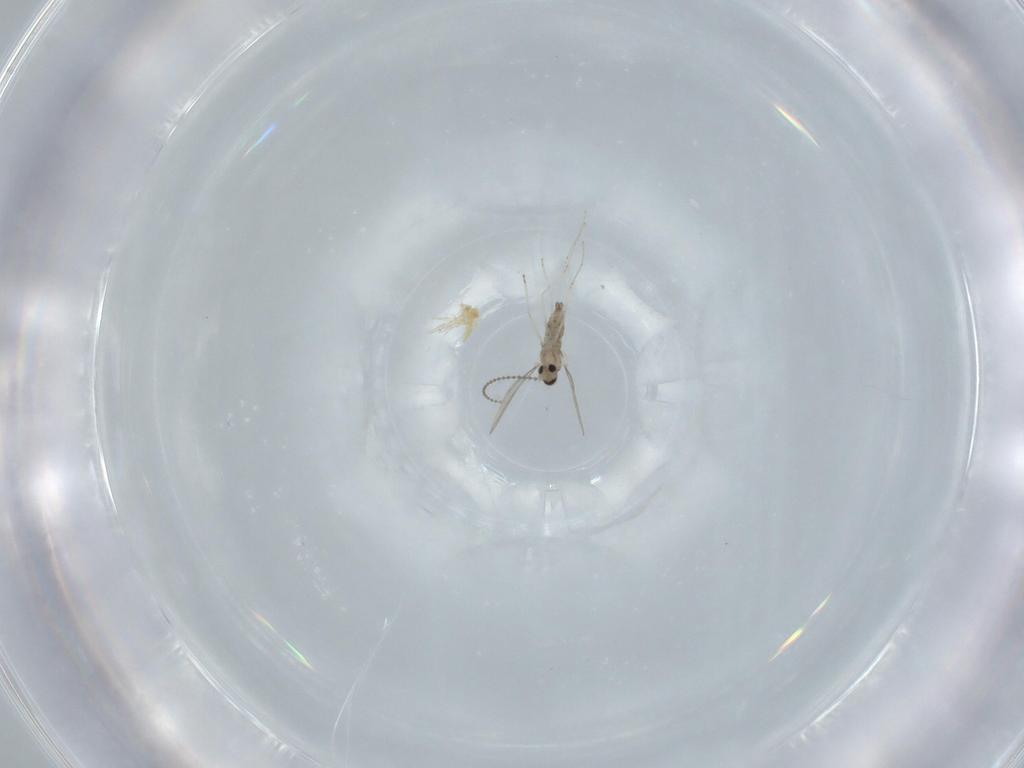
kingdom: Animalia
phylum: Arthropoda
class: Insecta
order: Diptera
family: Cecidomyiidae
